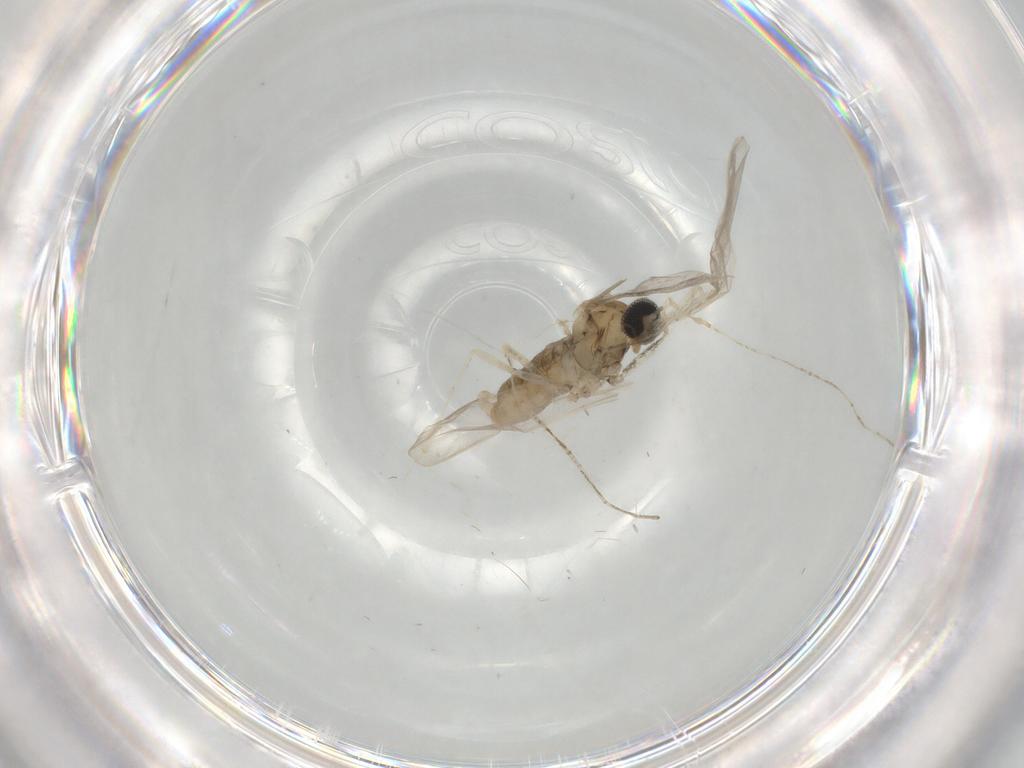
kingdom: Animalia
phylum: Arthropoda
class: Insecta
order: Diptera
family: Cecidomyiidae
